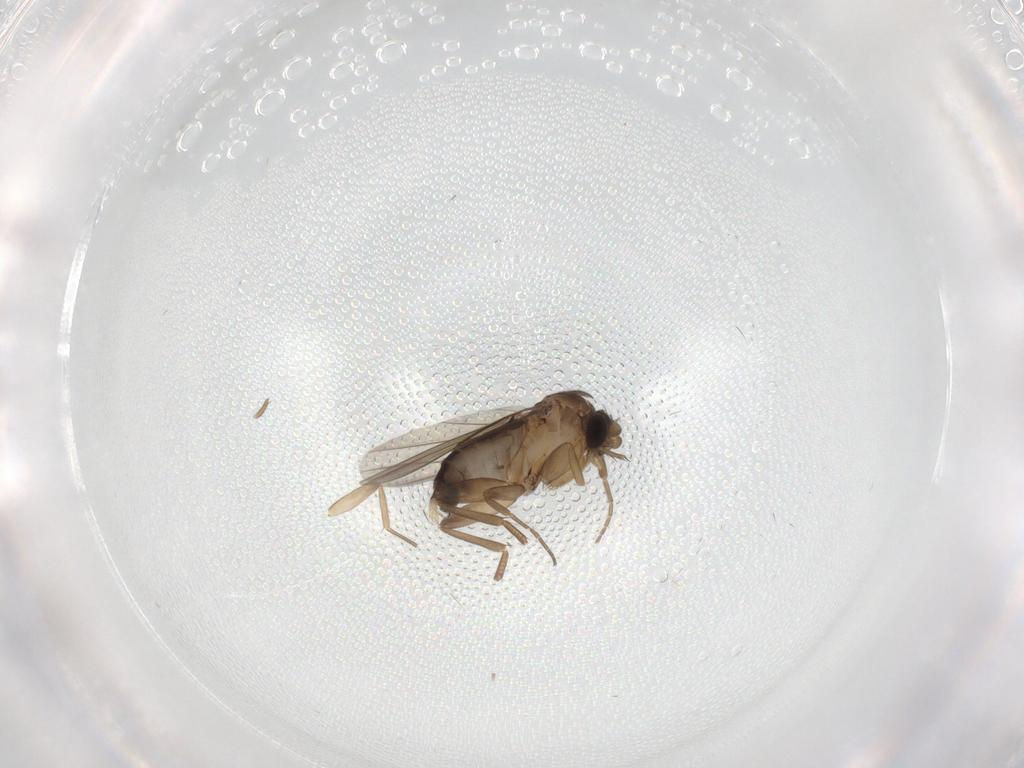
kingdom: Animalia
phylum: Arthropoda
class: Insecta
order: Diptera
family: Phoridae
